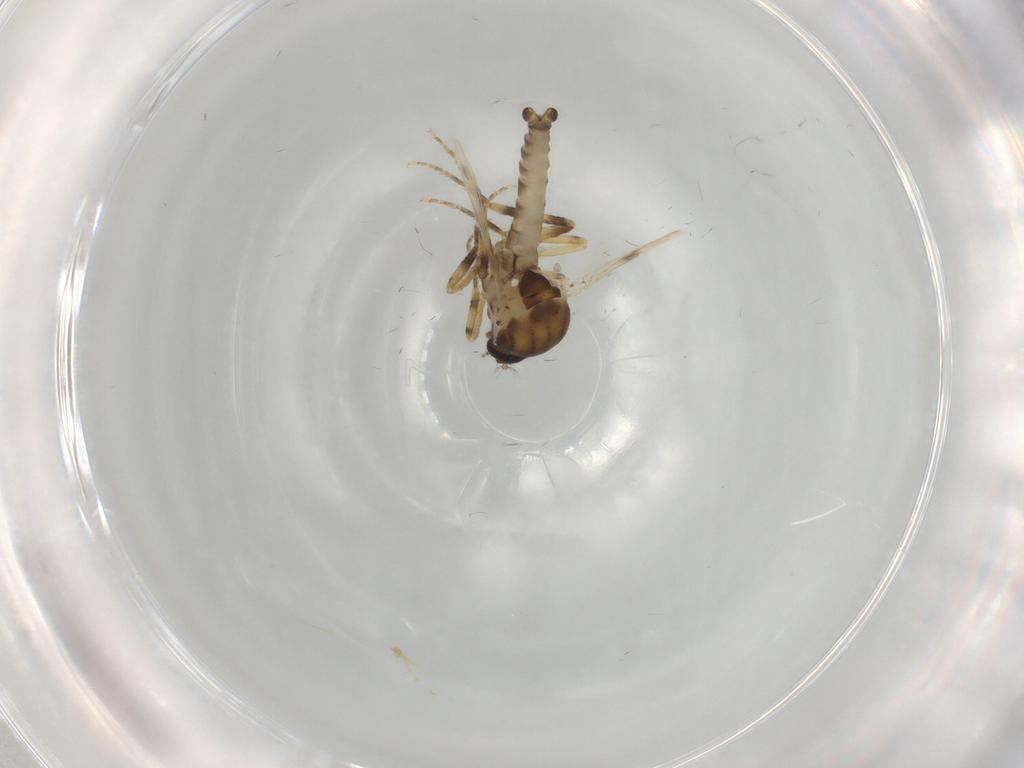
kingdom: Animalia
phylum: Arthropoda
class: Insecta
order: Diptera
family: Ceratopogonidae
